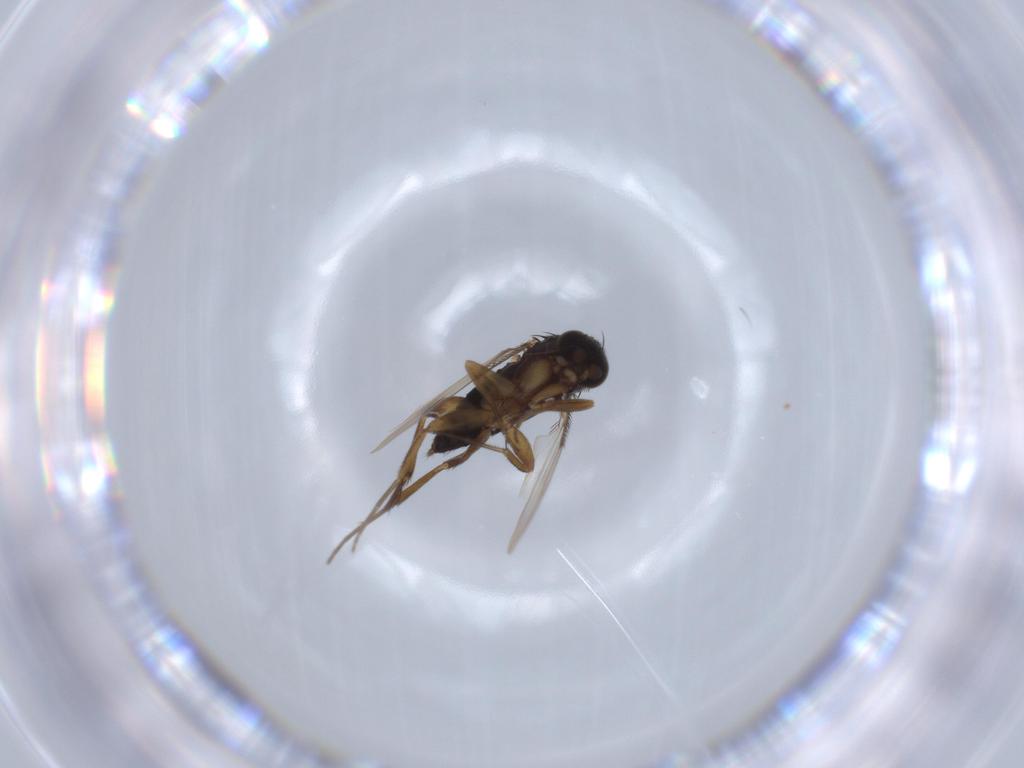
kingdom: Animalia
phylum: Arthropoda
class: Insecta
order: Diptera
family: Phoridae
